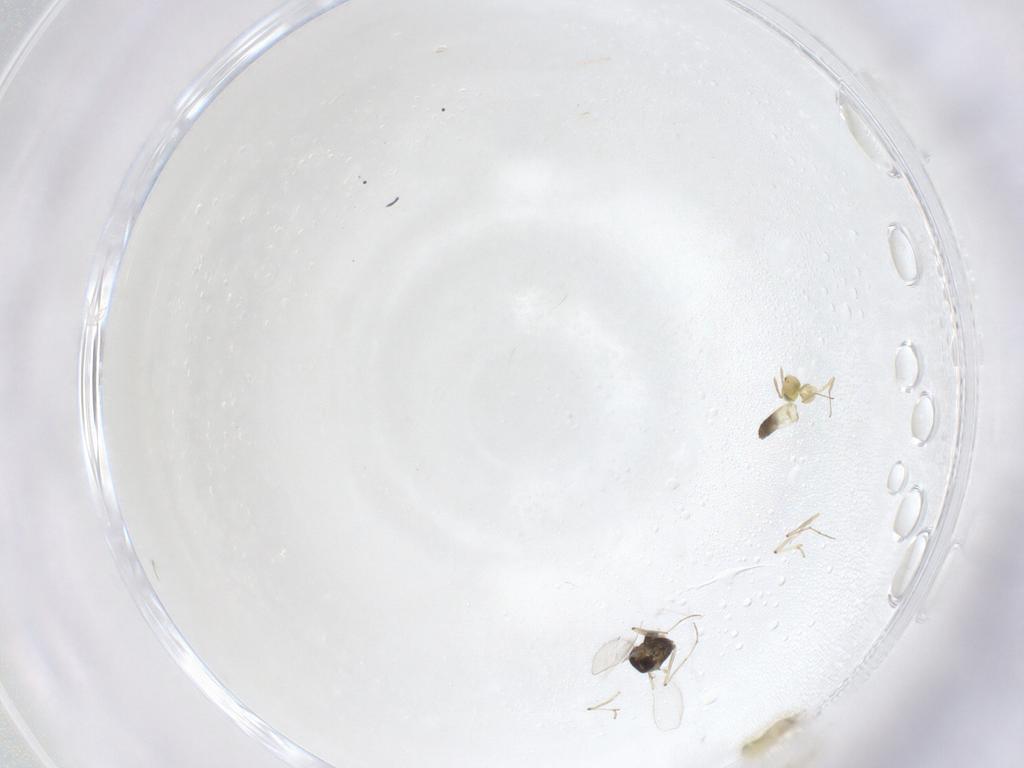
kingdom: Animalia
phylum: Arthropoda
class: Insecta
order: Hymenoptera
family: Aphelinidae
